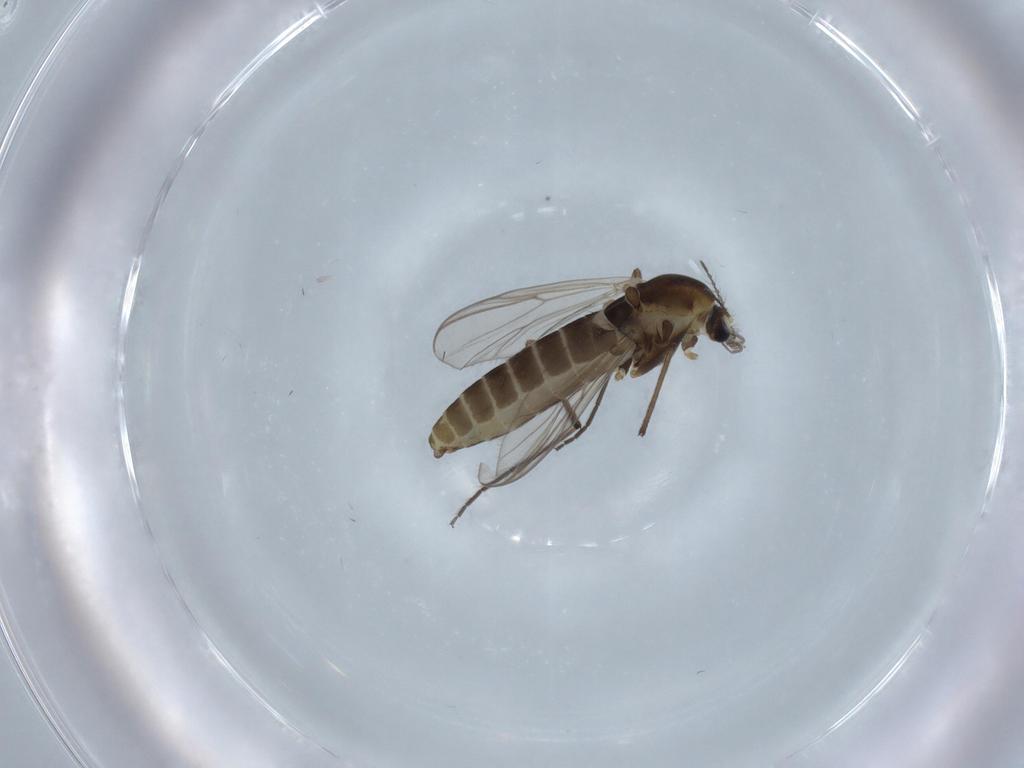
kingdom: Animalia
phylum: Arthropoda
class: Insecta
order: Diptera
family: Chironomidae
